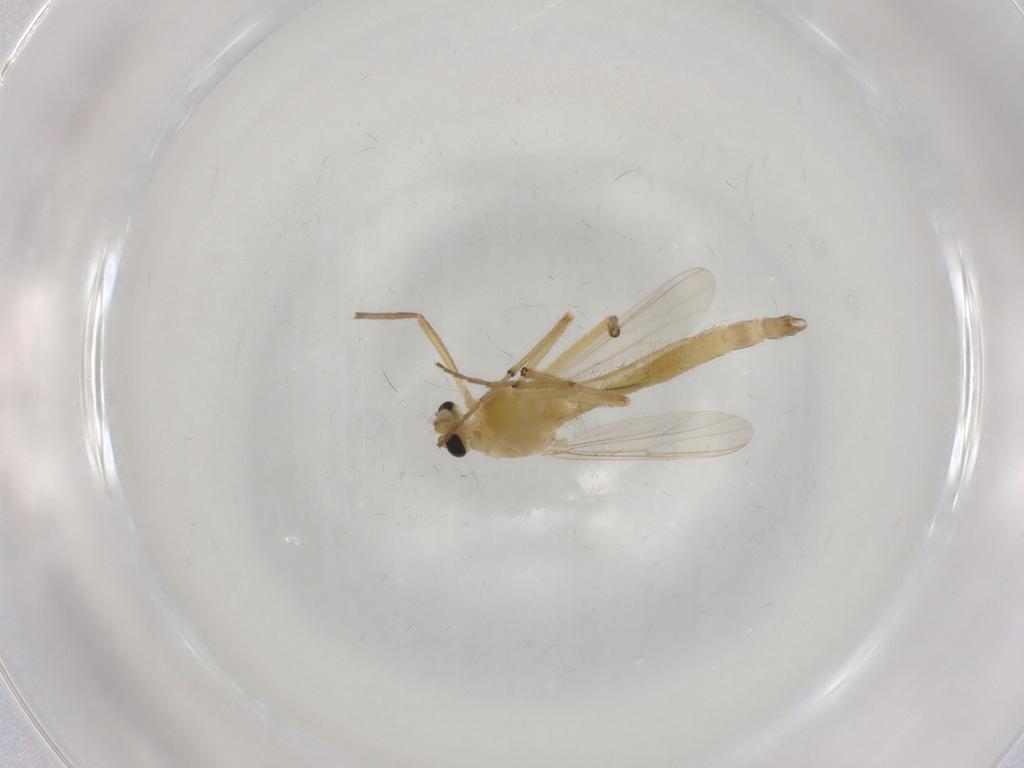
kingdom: Animalia
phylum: Arthropoda
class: Insecta
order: Diptera
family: Chironomidae
